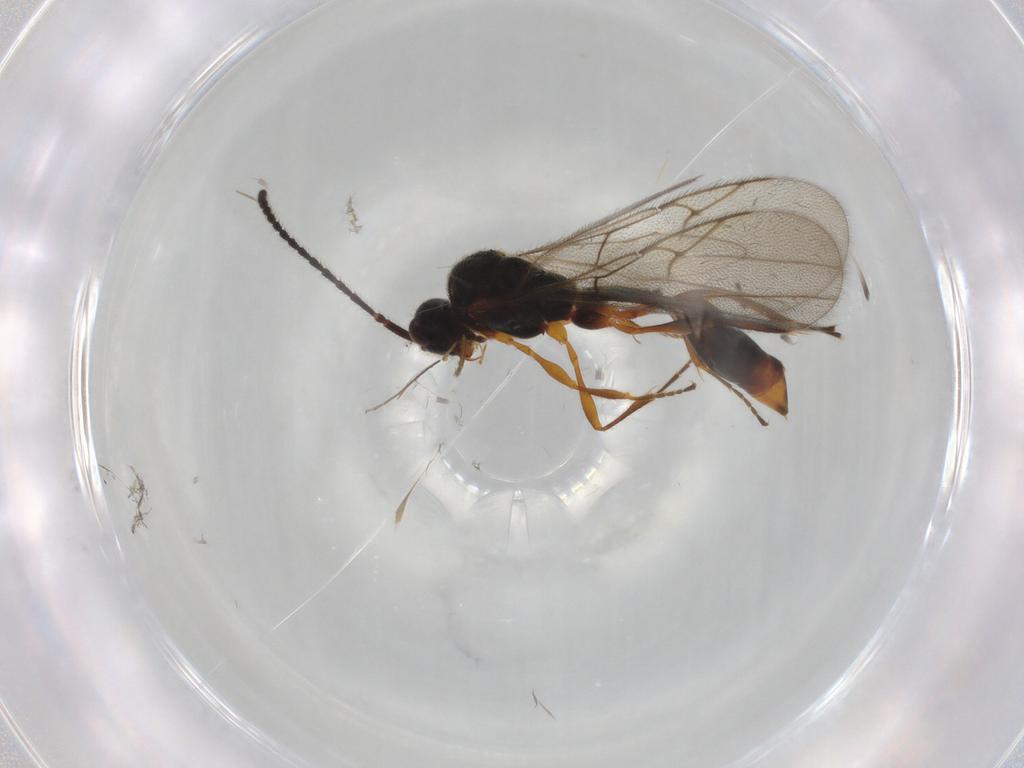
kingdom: Animalia
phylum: Arthropoda
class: Insecta
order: Hymenoptera
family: Diapriidae
